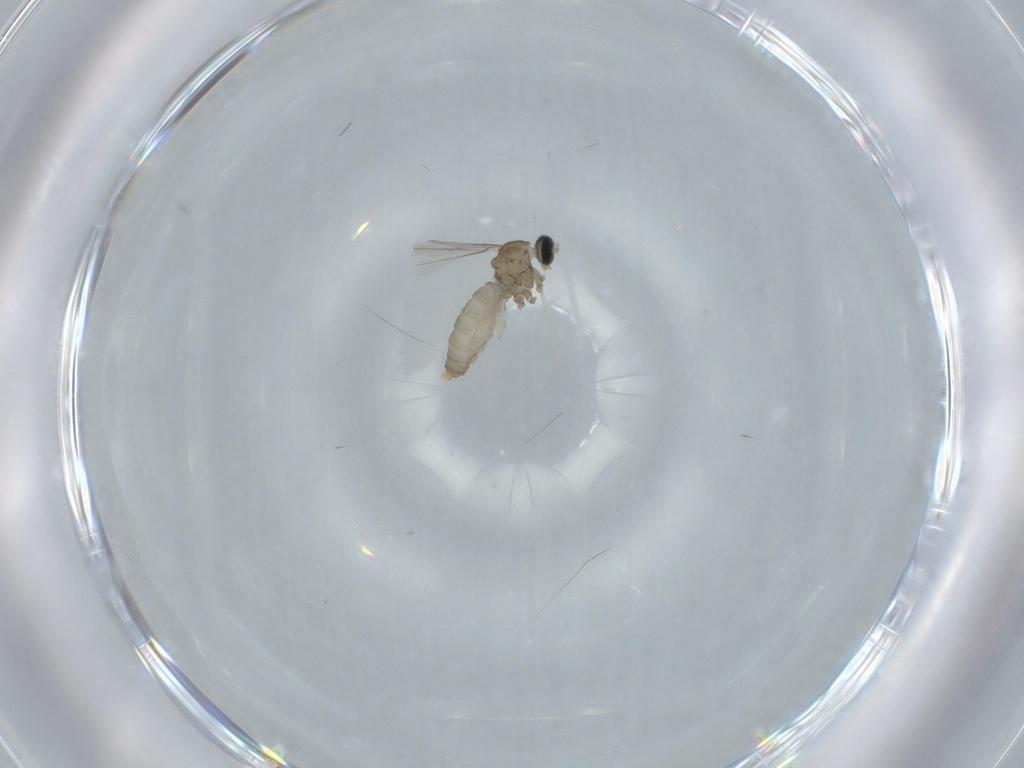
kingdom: Animalia
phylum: Arthropoda
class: Insecta
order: Diptera
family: Cecidomyiidae
